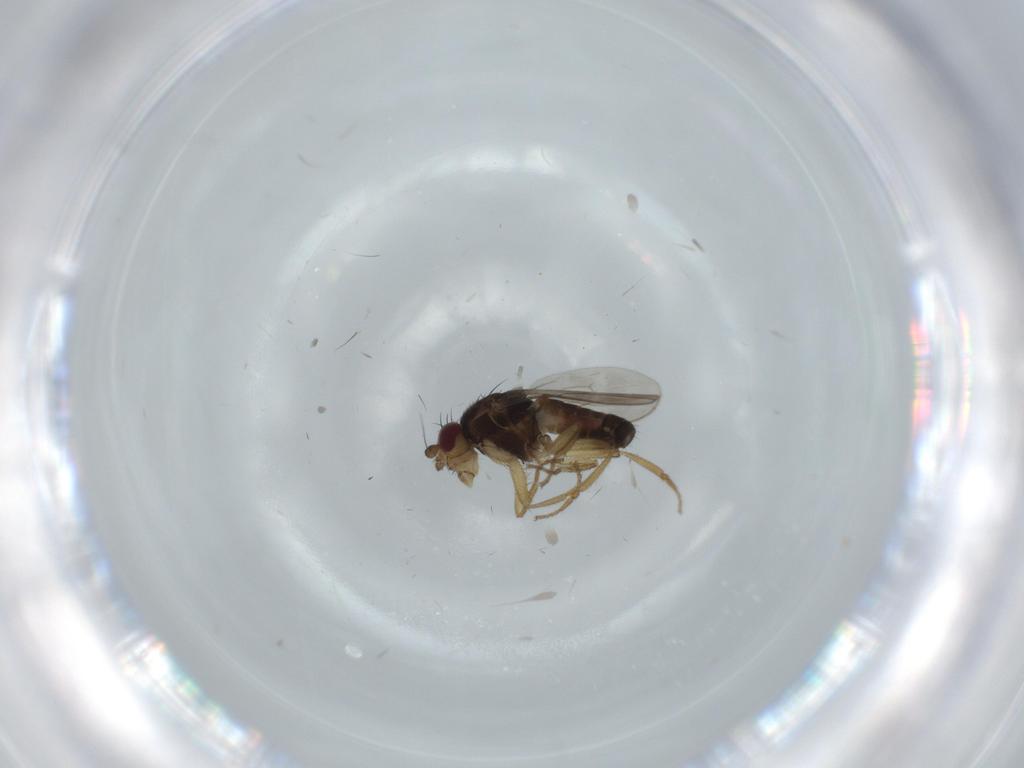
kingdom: Animalia
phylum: Arthropoda
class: Insecta
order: Diptera
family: Sphaeroceridae
